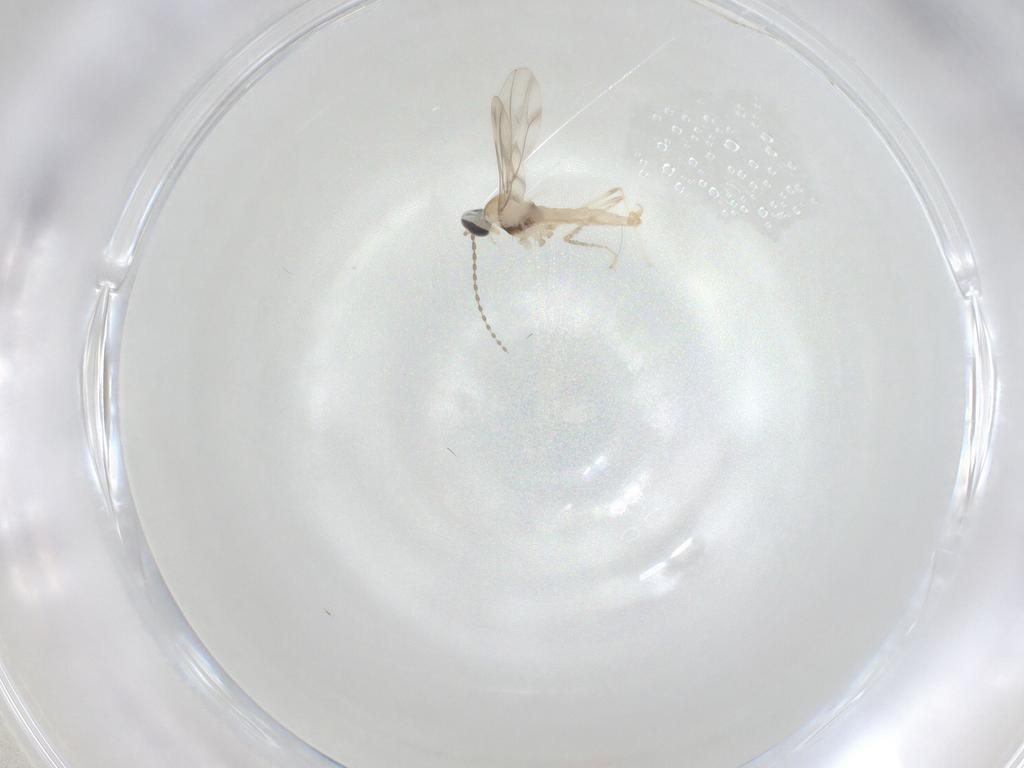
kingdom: Animalia
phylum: Arthropoda
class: Insecta
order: Diptera
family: Cecidomyiidae
